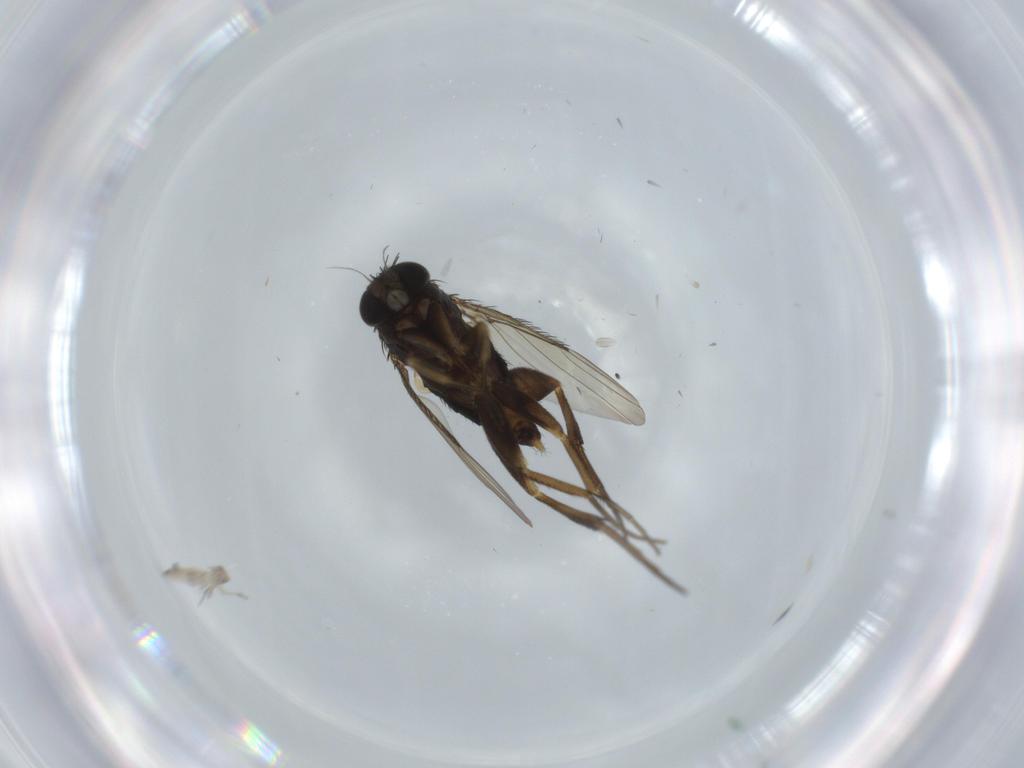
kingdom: Animalia
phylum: Arthropoda
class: Insecta
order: Diptera
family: Phoridae
